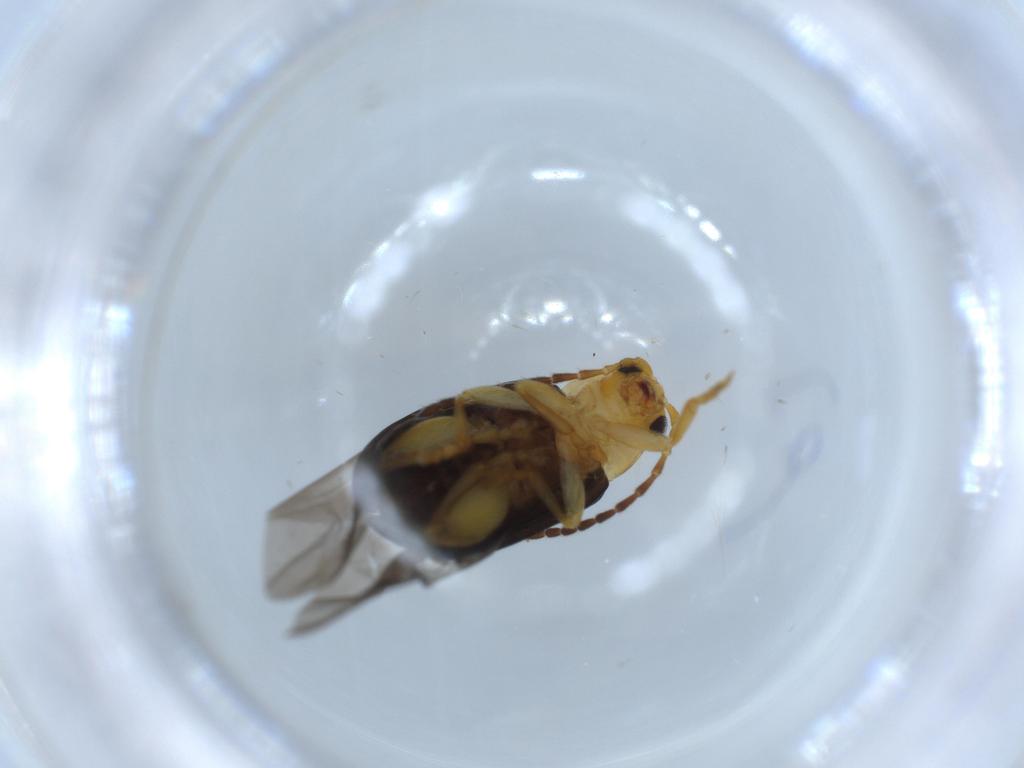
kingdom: Animalia
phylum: Arthropoda
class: Insecta
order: Coleoptera
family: Chrysomelidae
